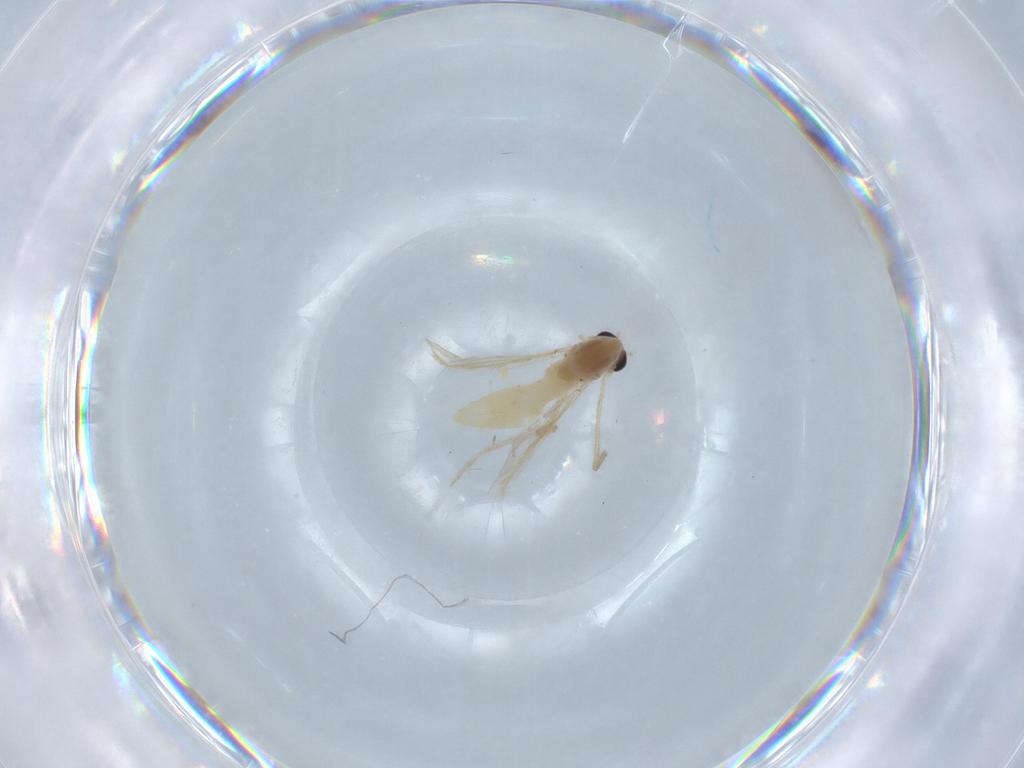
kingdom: Animalia
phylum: Arthropoda
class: Insecta
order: Diptera
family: Chironomidae
